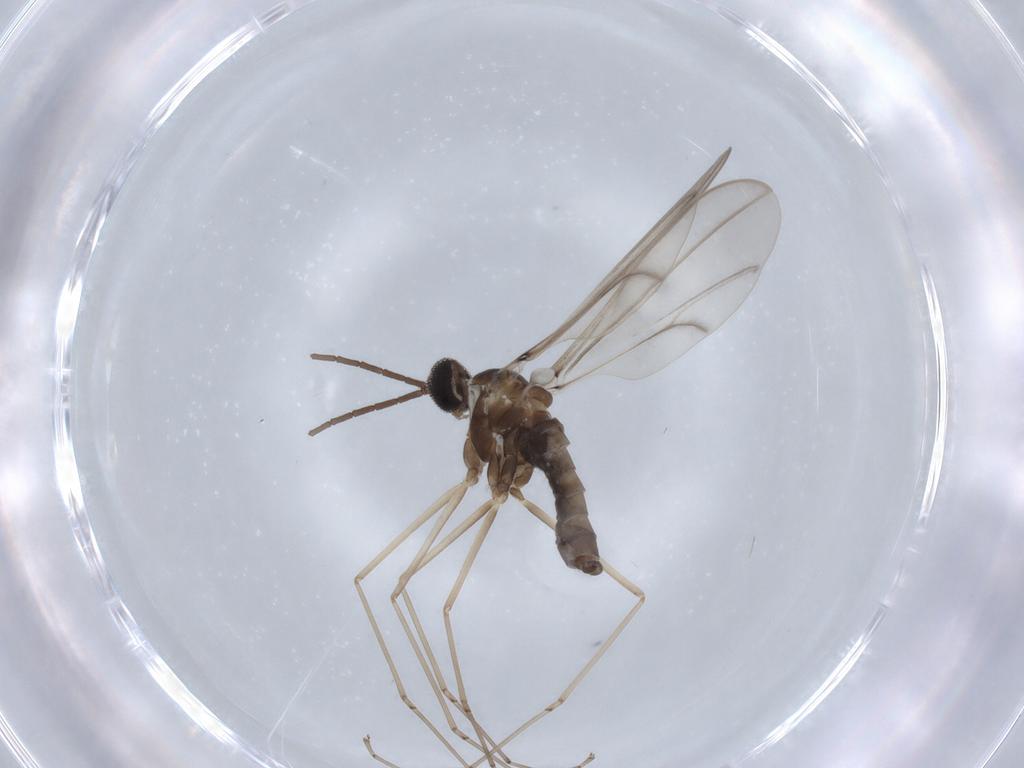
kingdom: Animalia
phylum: Arthropoda
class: Insecta
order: Diptera
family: Cecidomyiidae
